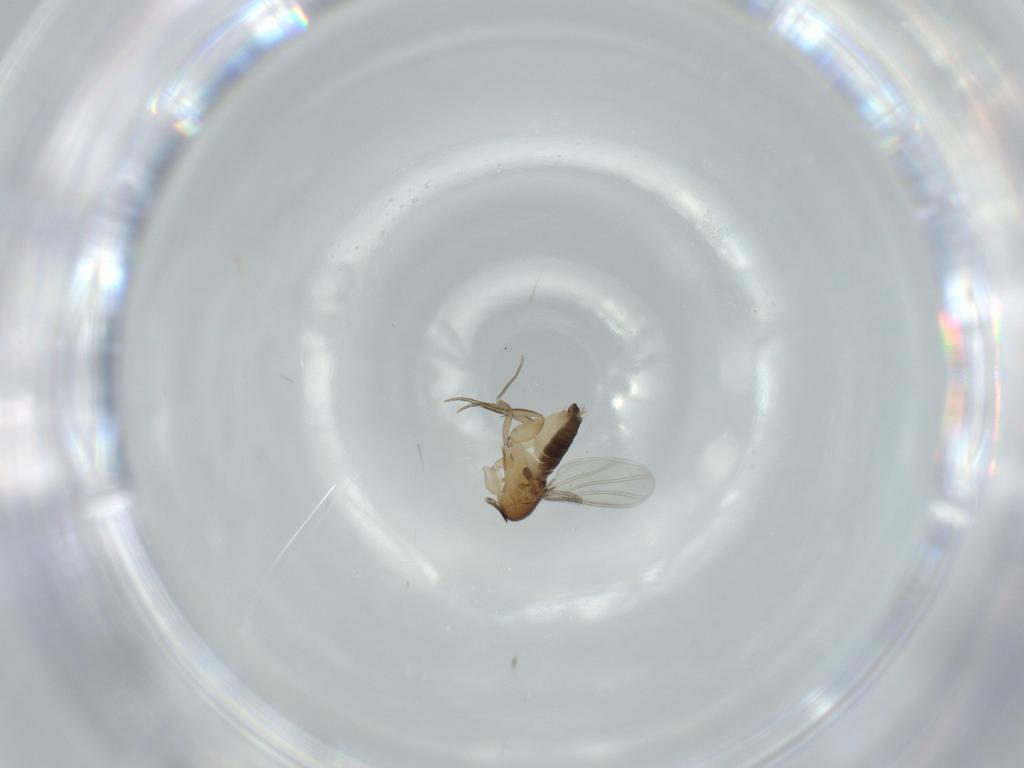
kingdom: Animalia
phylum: Arthropoda
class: Insecta
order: Diptera
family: Phoridae
